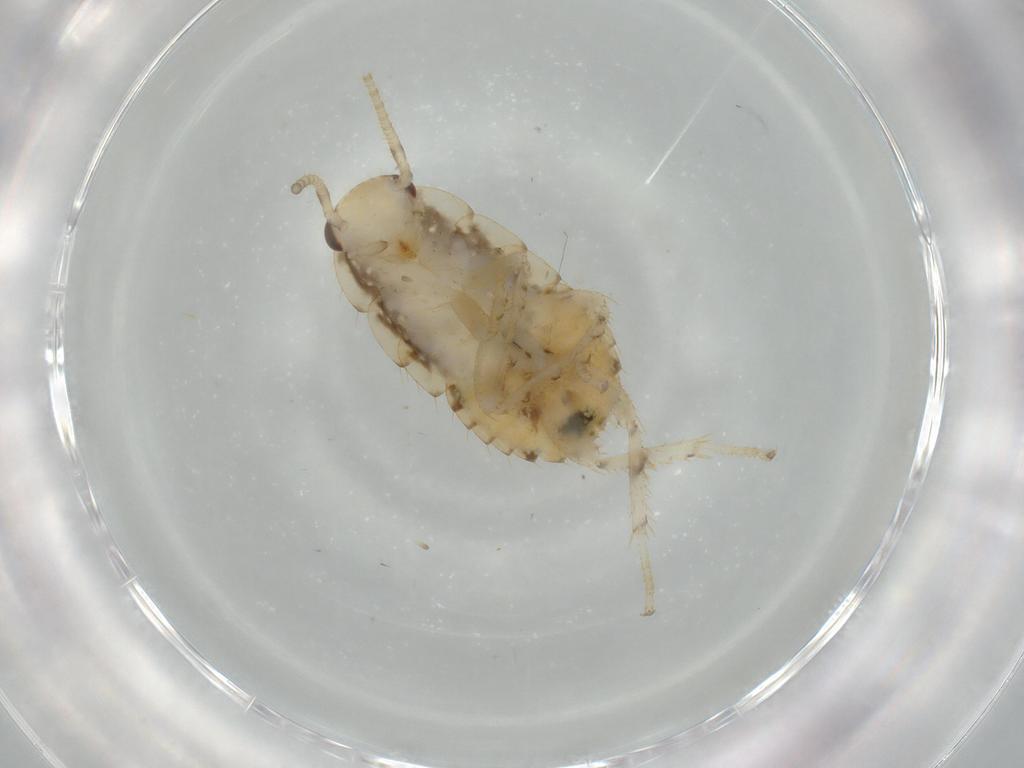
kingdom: Animalia
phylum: Arthropoda
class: Insecta
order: Blattodea
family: Ectobiidae
